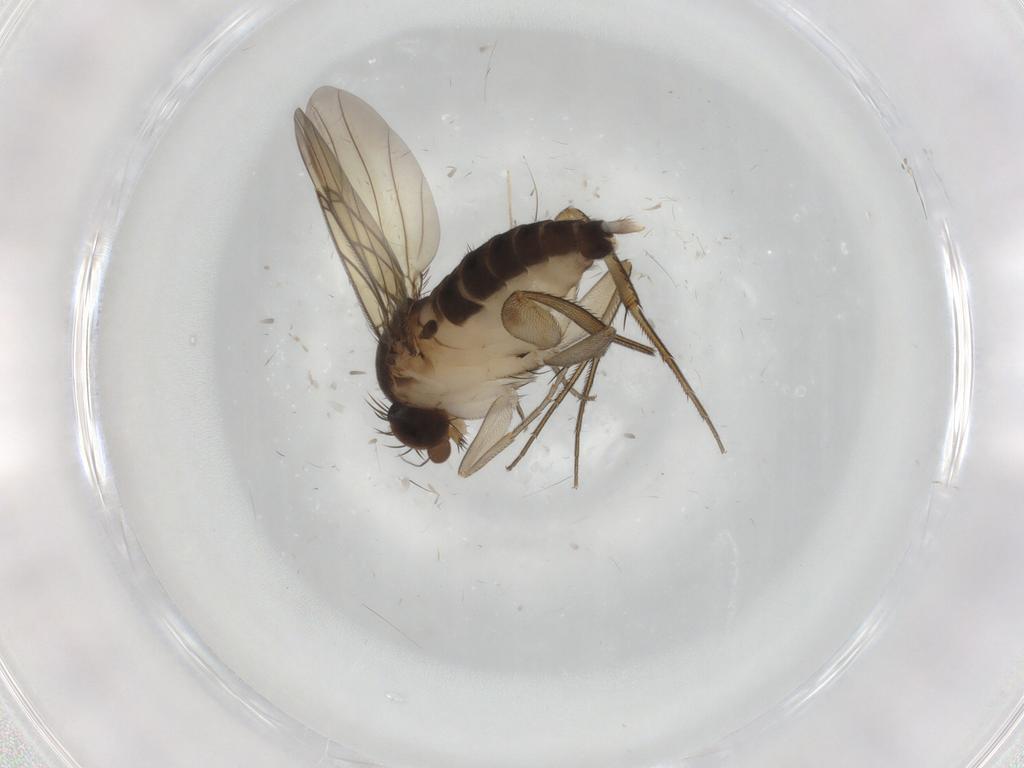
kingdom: Animalia
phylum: Arthropoda
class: Insecta
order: Diptera
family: Chironomidae
